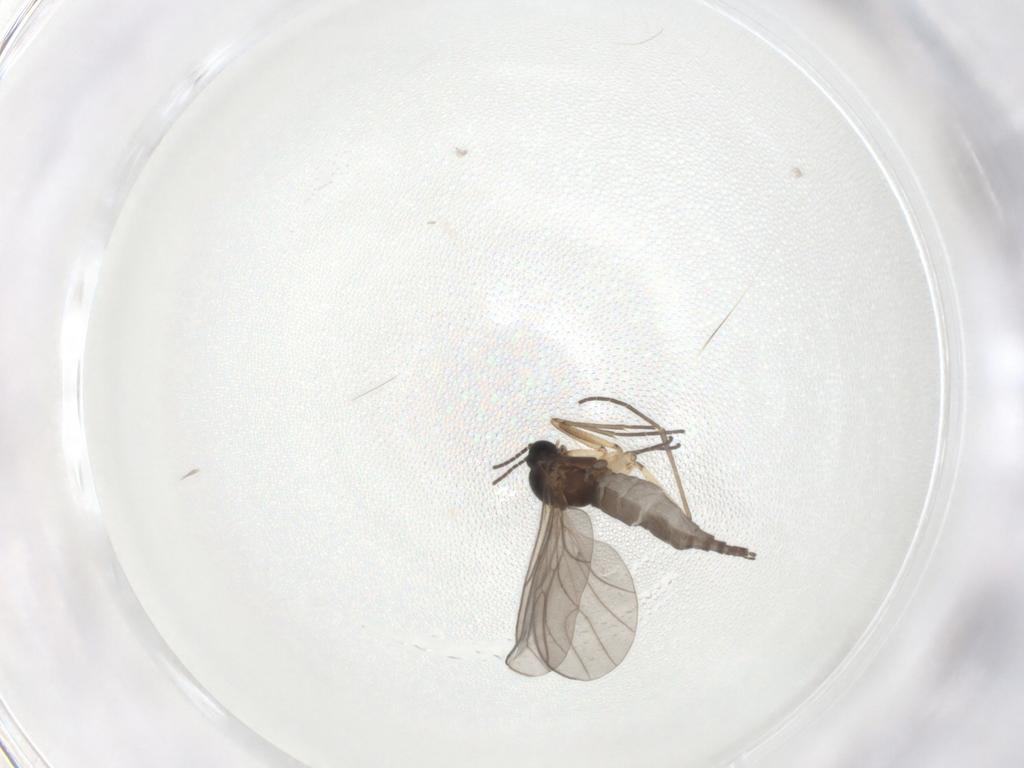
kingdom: Animalia
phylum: Arthropoda
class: Insecta
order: Diptera
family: Sciaridae
